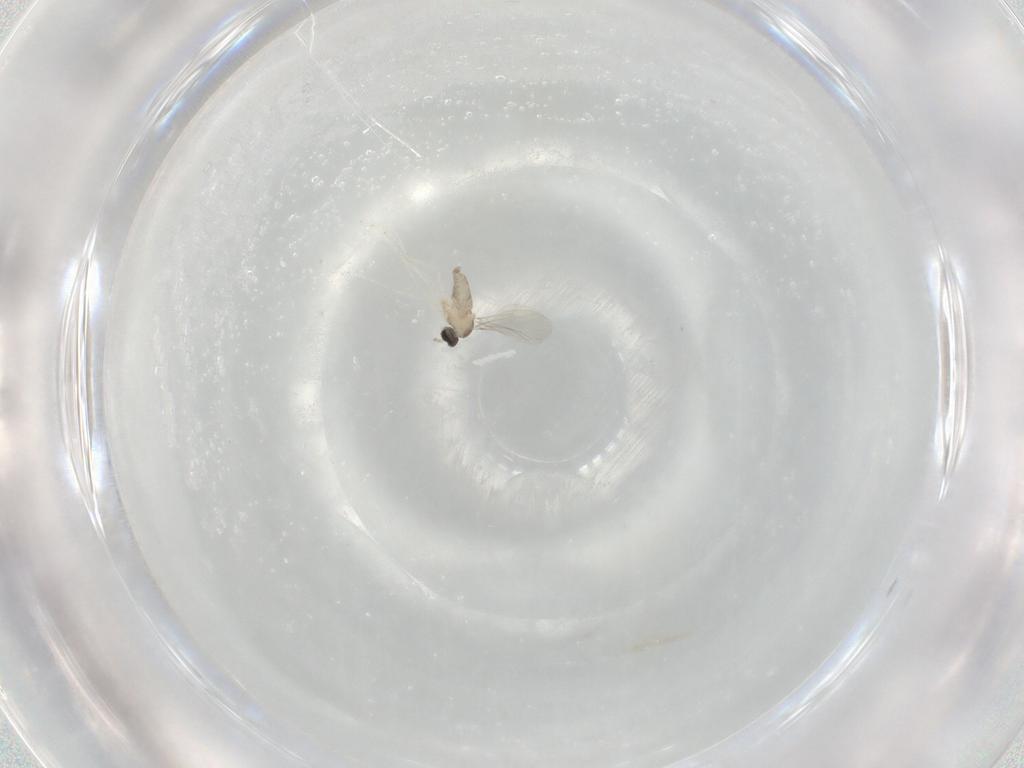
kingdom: Animalia
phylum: Arthropoda
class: Insecta
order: Diptera
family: Cecidomyiidae
